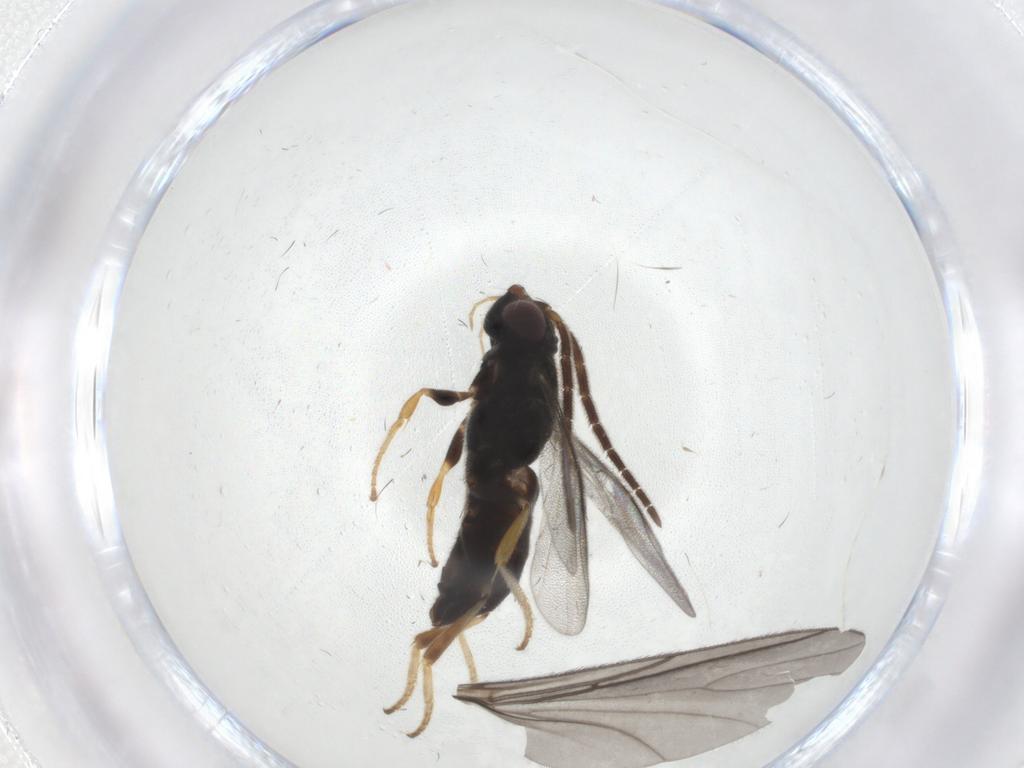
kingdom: Animalia
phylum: Arthropoda
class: Insecta
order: Hymenoptera
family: Dryinidae
